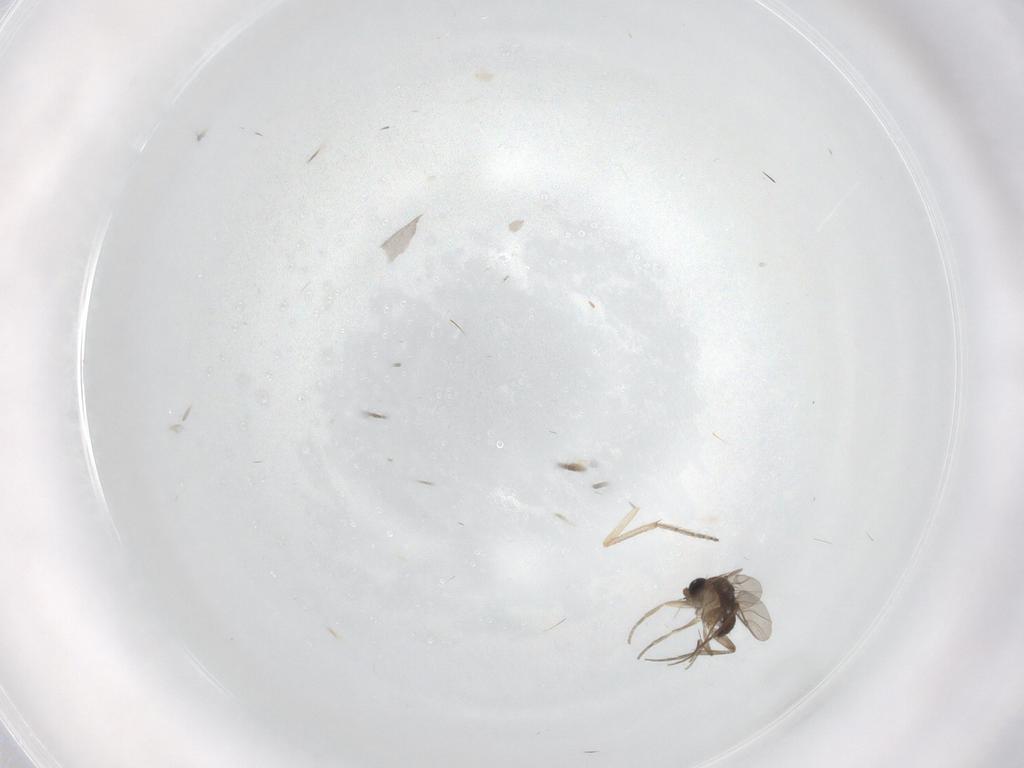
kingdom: Animalia
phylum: Arthropoda
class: Insecta
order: Diptera
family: Phoridae
